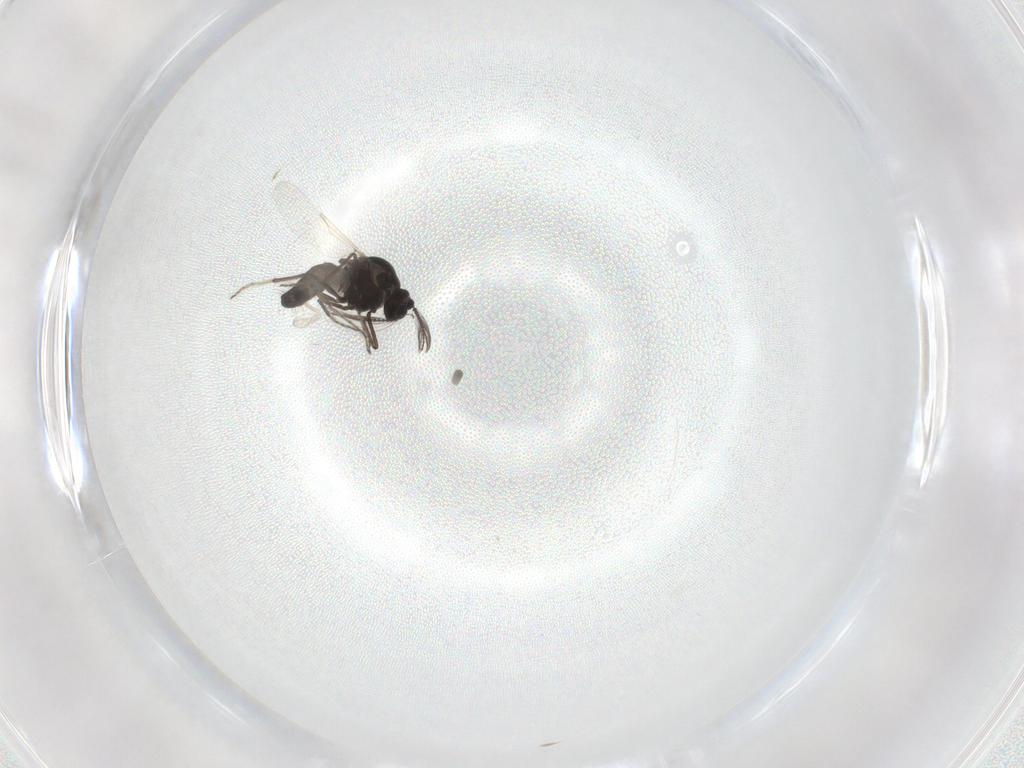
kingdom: Animalia
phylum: Arthropoda
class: Insecta
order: Diptera
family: Ceratopogonidae
